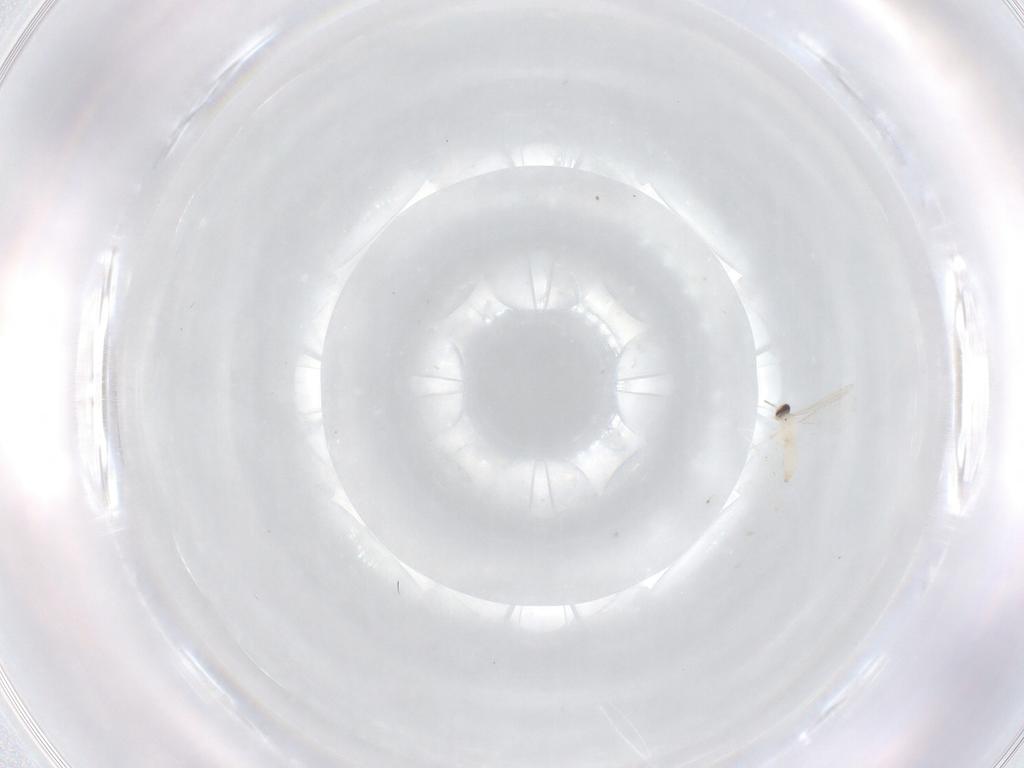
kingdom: Animalia
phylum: Arthropoda
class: Insecta
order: Diptera
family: Cecidomyiidae
